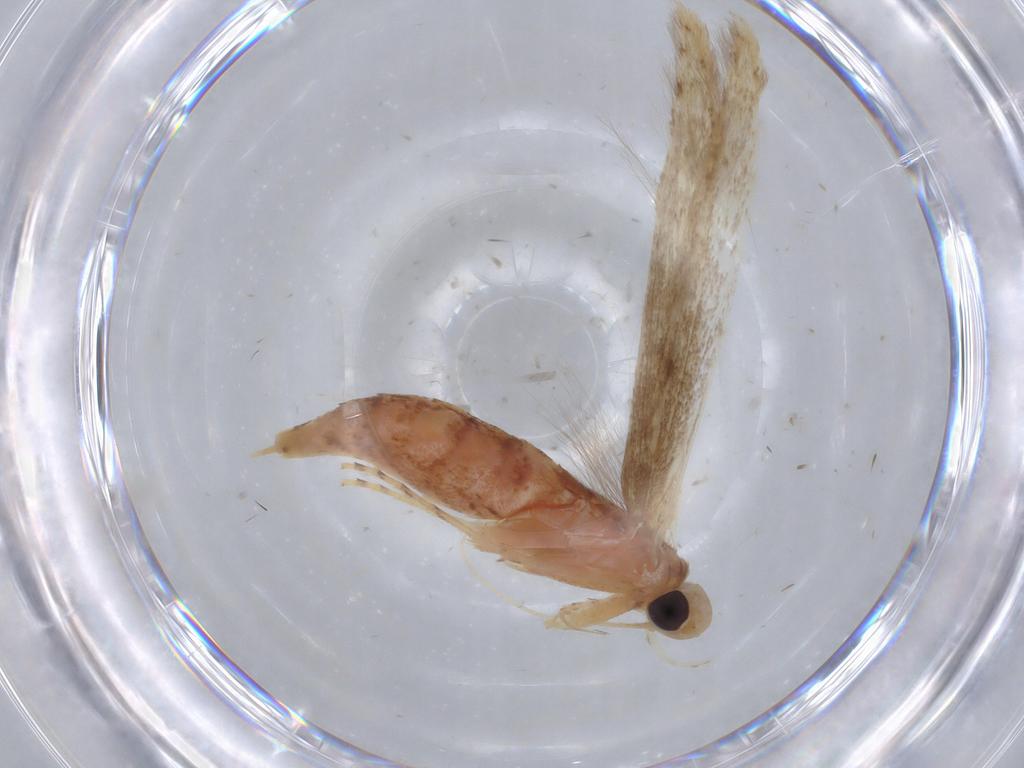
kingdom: Animalia
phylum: Arthropoda
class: Insecta
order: Lepidoptera
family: Batrachedridae
